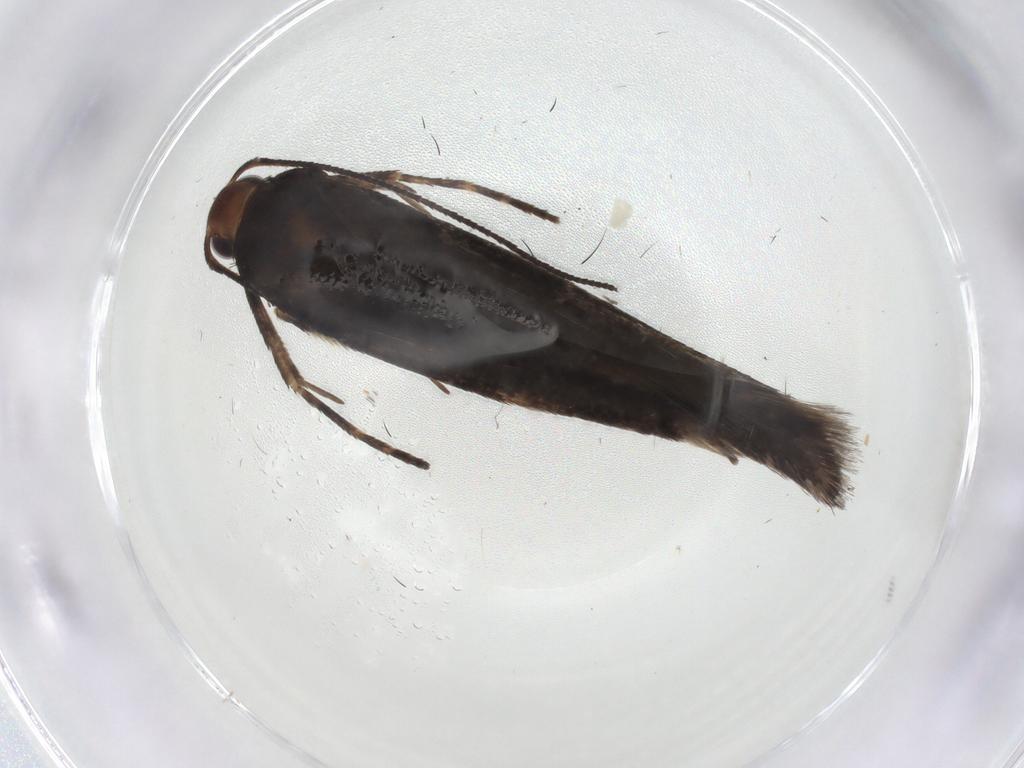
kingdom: Animalia
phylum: Arthropoda
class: Insecta
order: Lepidoptera
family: Gelechiidae
